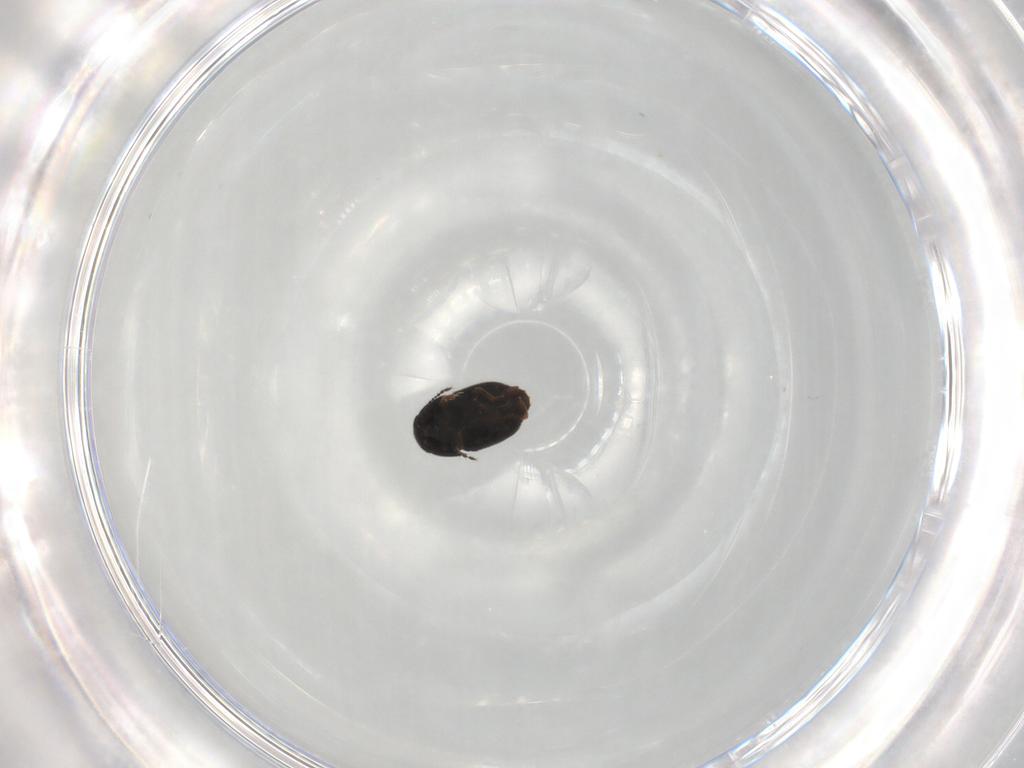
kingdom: Animalia
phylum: Arthropoda
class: Insecta
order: Coleoptera
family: Ptiliidae
